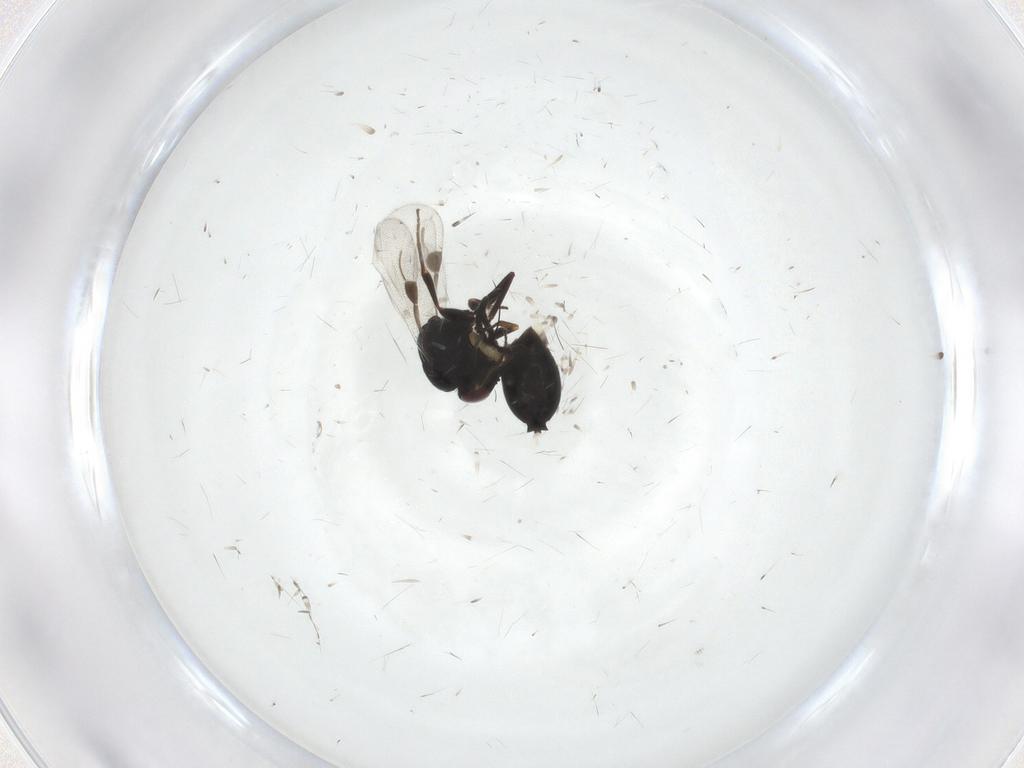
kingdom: Animalia
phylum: Arthropoda
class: Insecta
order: Diptera
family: Keroplatidae
